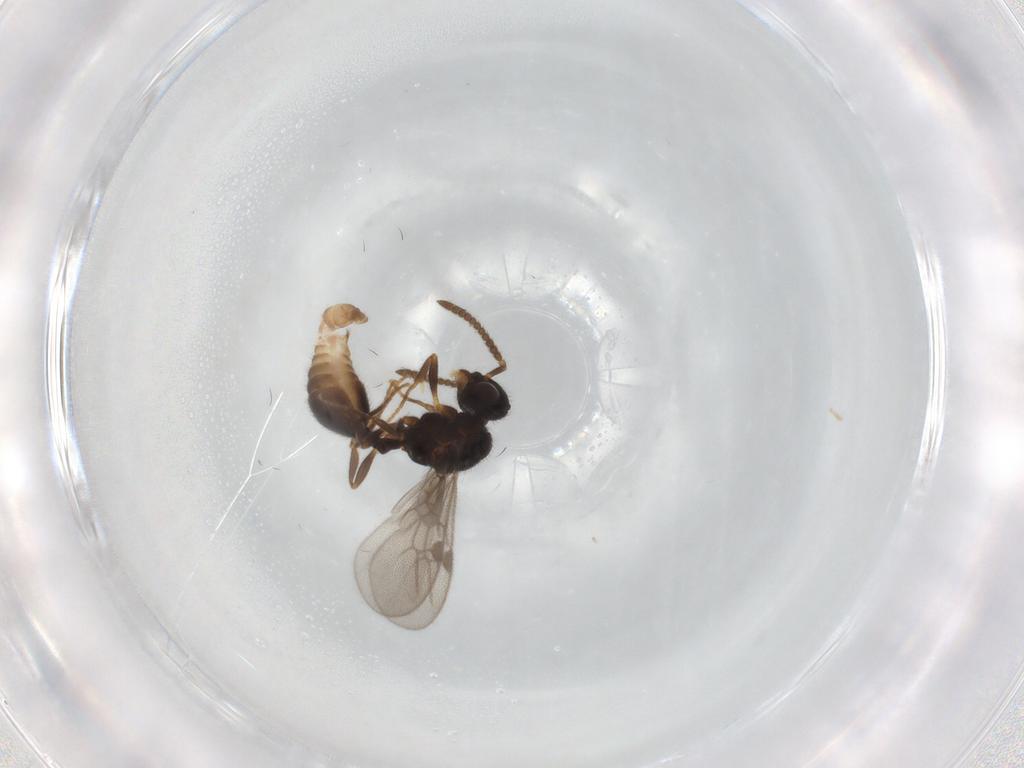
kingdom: Animalia
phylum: Arthropoda
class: Insecta
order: Hymenoptera
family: Formicidae
